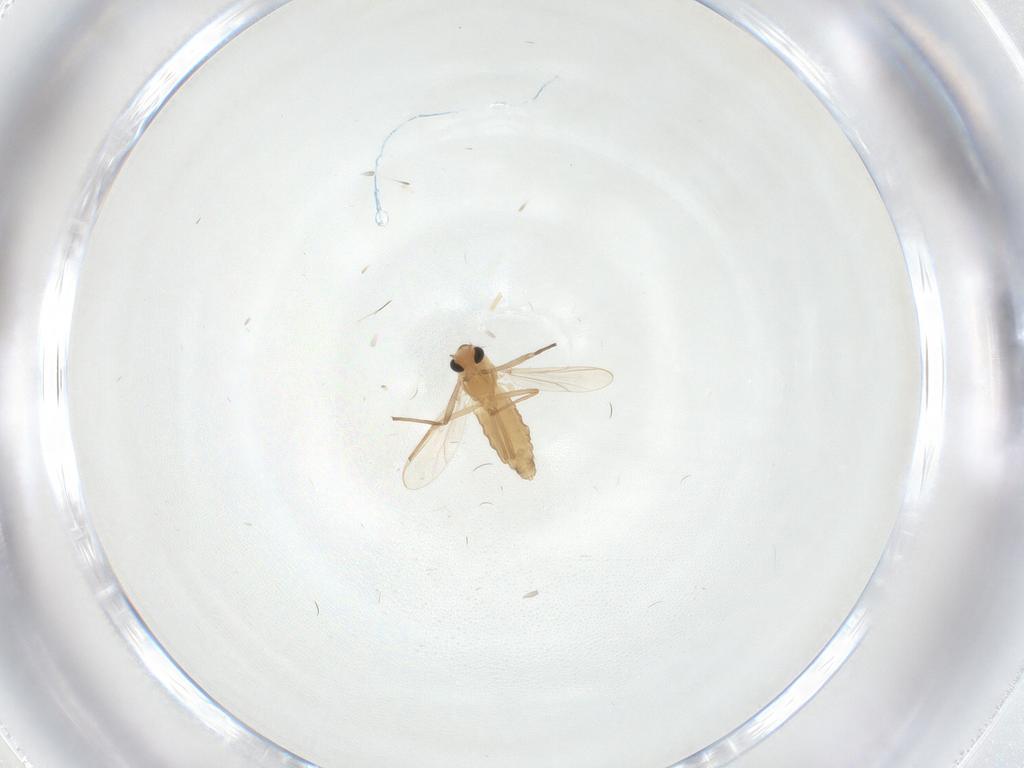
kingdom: Animalia
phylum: Arthropoda
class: Insecta
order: Diptera
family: Chironomidae
